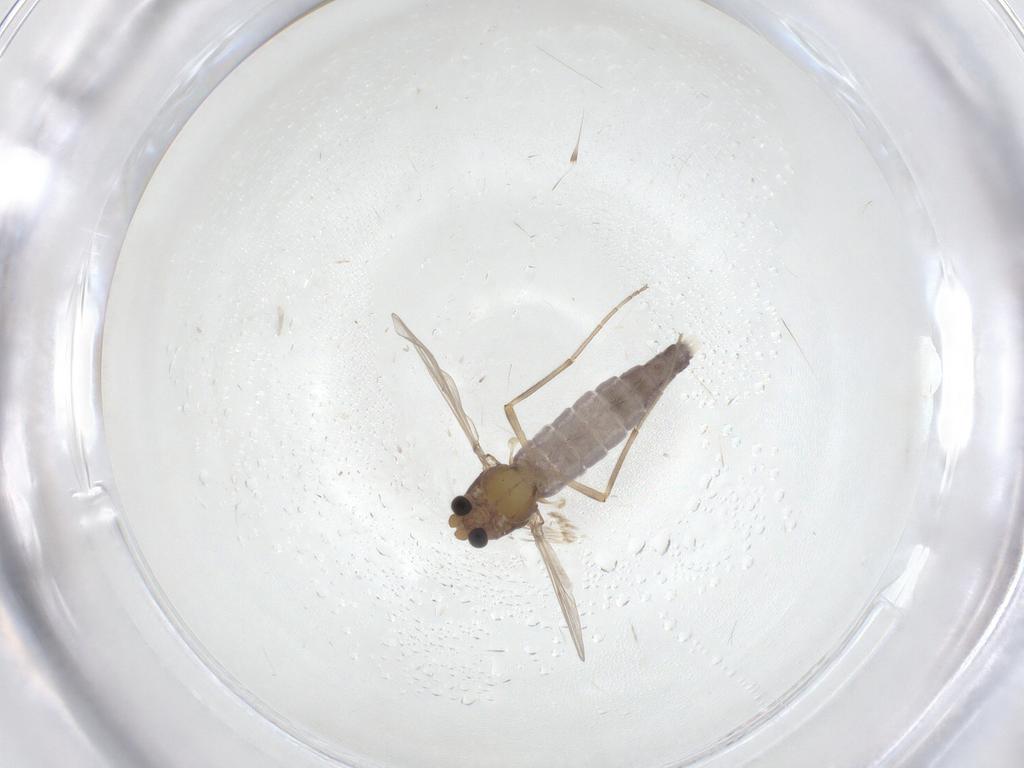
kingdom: Animalia
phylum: Arthropoda
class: Insecta
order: Diptera
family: Chironomidae
